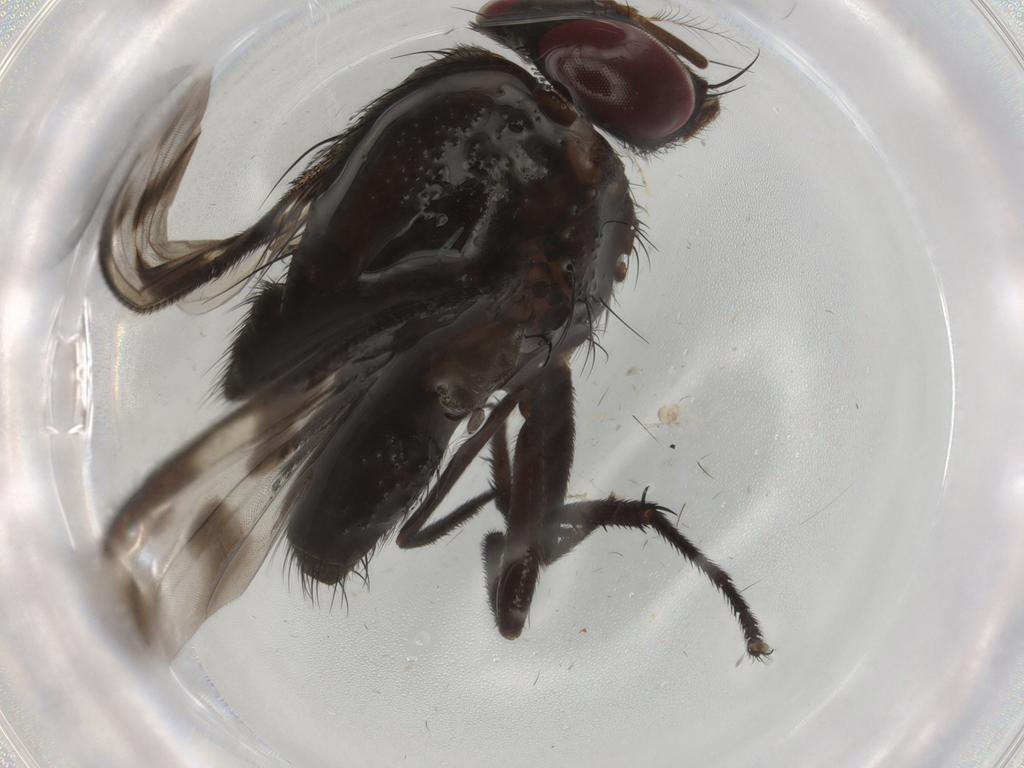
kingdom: Animalia
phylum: Arthropoda
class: Insecta
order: Diptera
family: Muscidae
